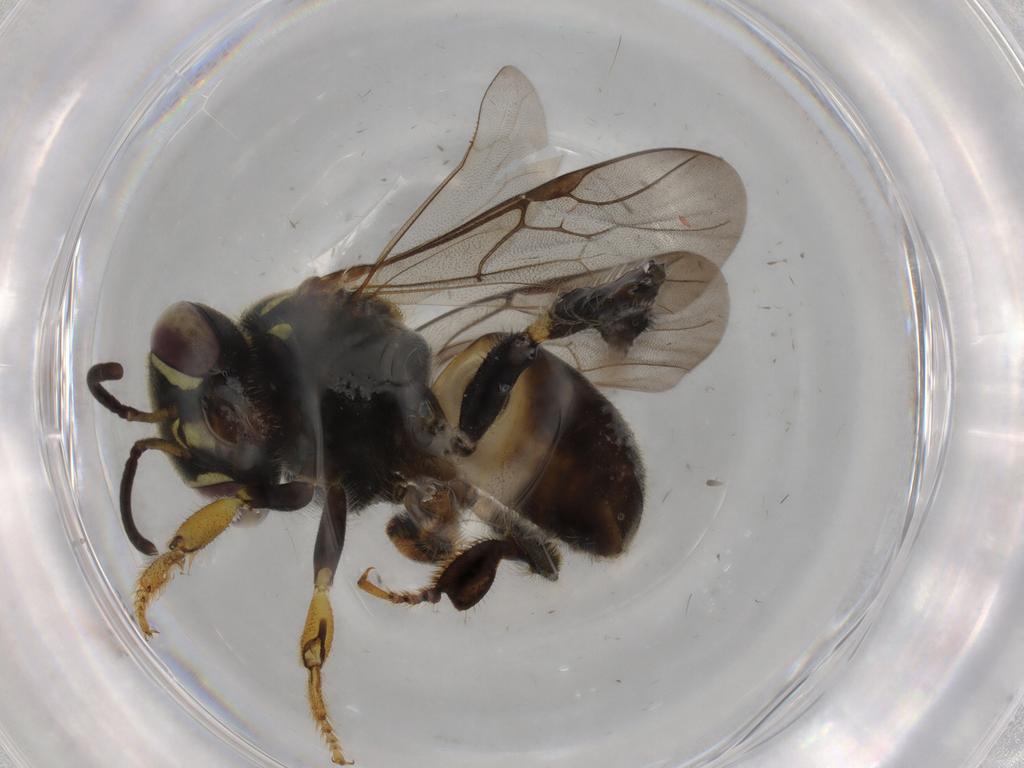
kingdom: Animalia
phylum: Arthropoda
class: Insecta
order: Hymenoptera
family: Apidae
